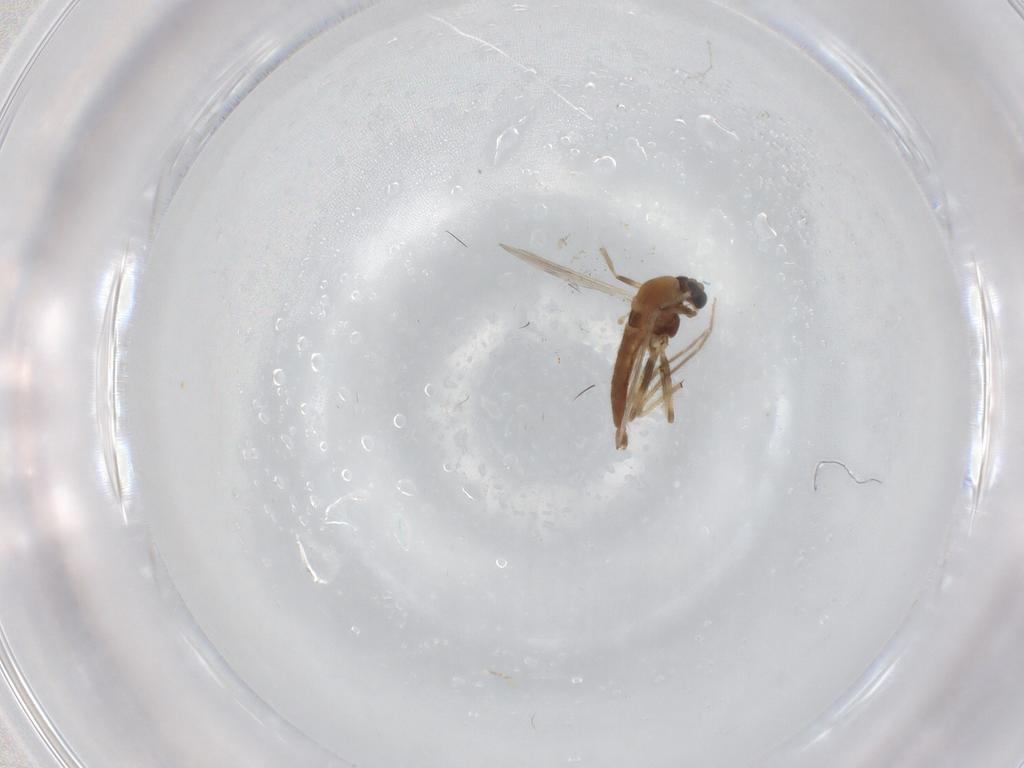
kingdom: Animalia
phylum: Arthropoda
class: Insecta
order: Diptera
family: Chironomidae
